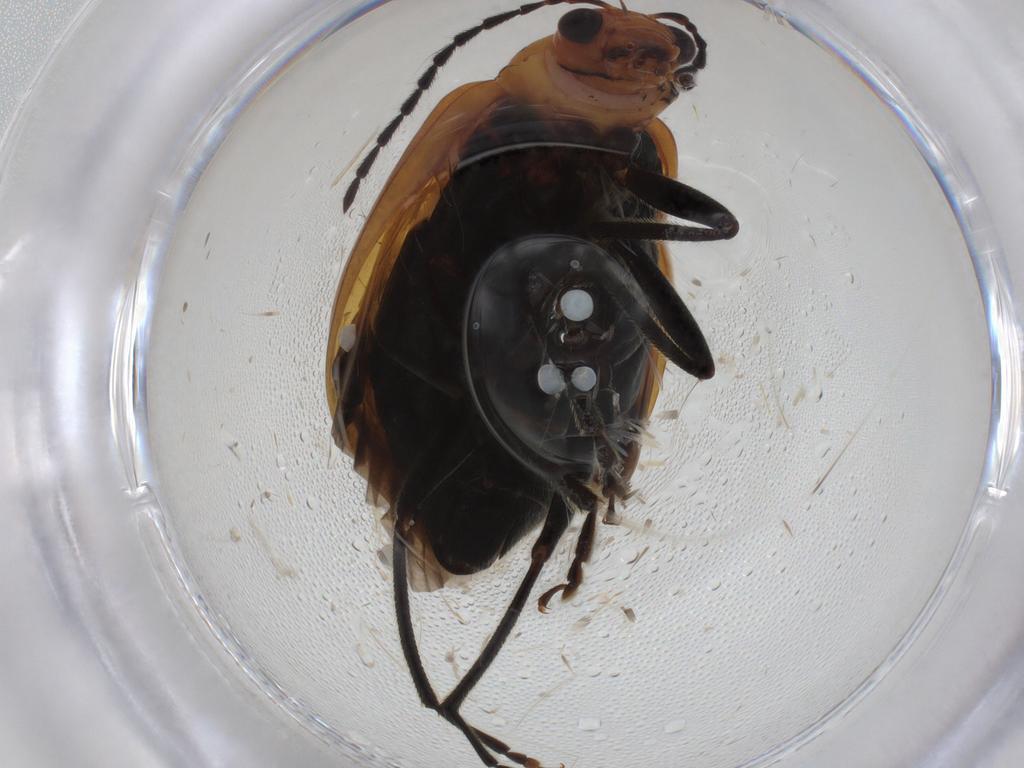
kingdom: Animalia
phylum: Arthropoda
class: Insecta
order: Coleoptera
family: Chrysomelidae
